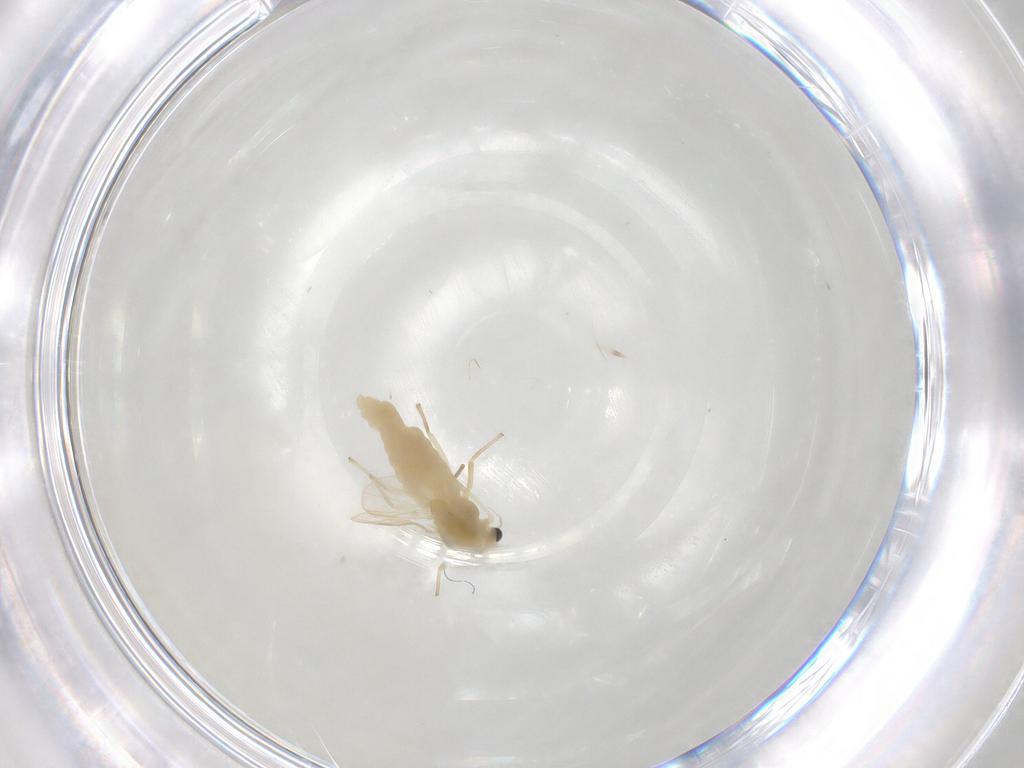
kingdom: Animalia
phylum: Arthropoda
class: Insecta
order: Diptera
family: Chironomidae
